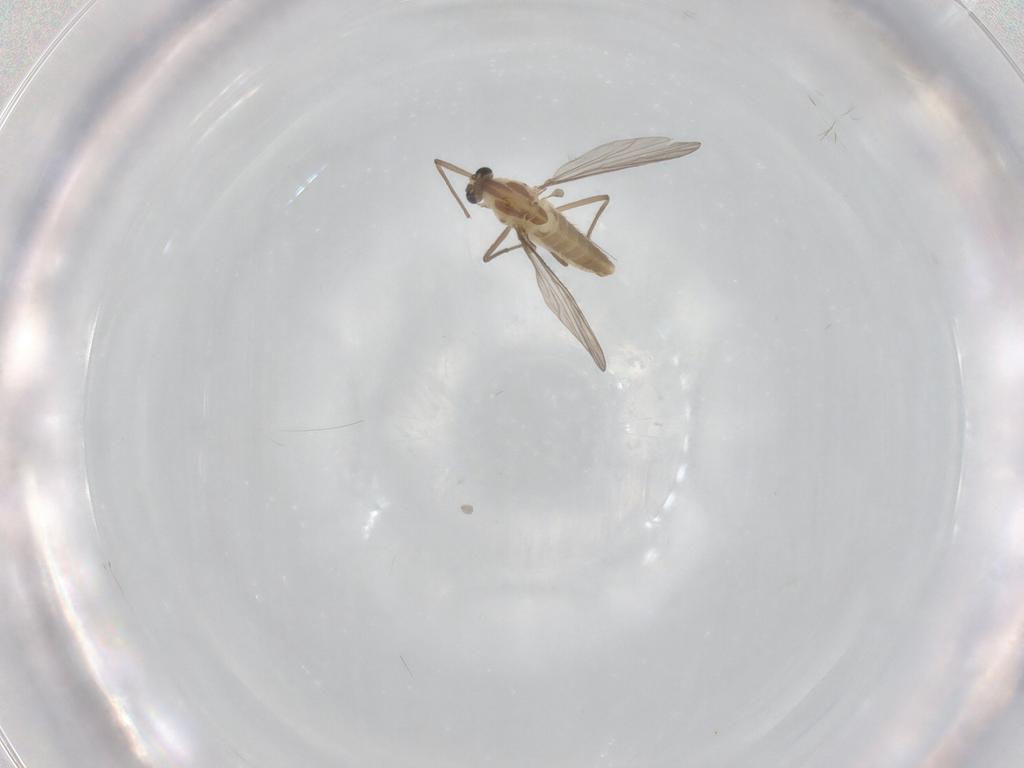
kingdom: Animalia
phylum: Arthropoda
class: Insecta
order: Diptera
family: Chironomidae
